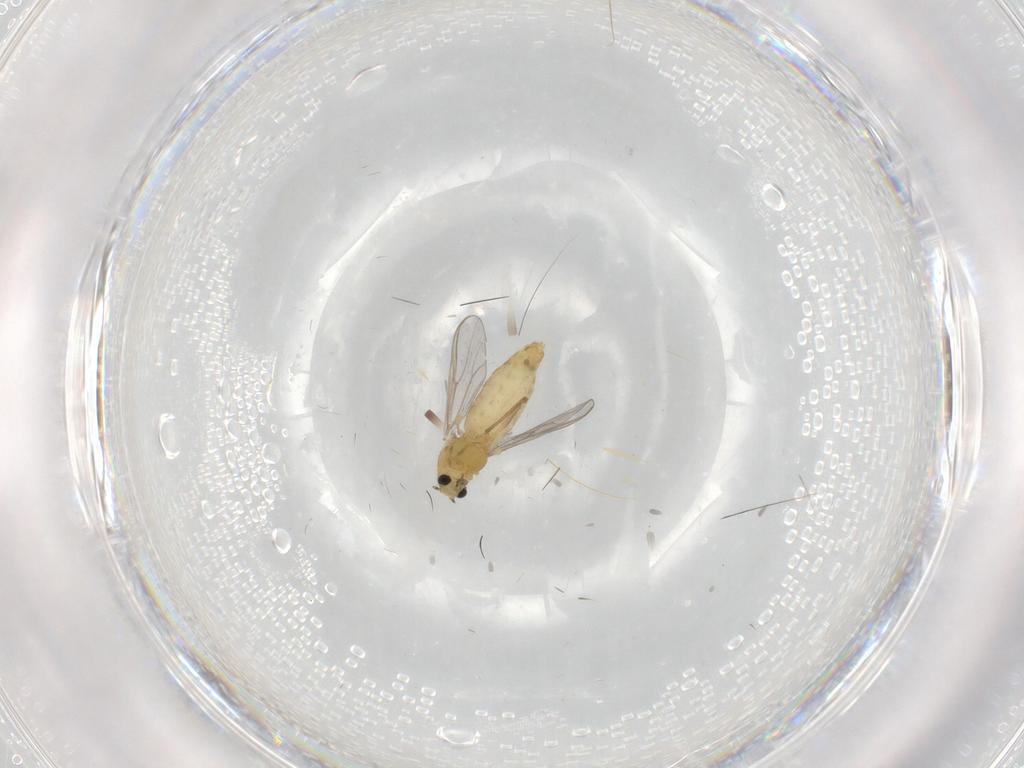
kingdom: Animalia
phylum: Arthropoda
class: Insecta
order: Diptera
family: Chironomidae
